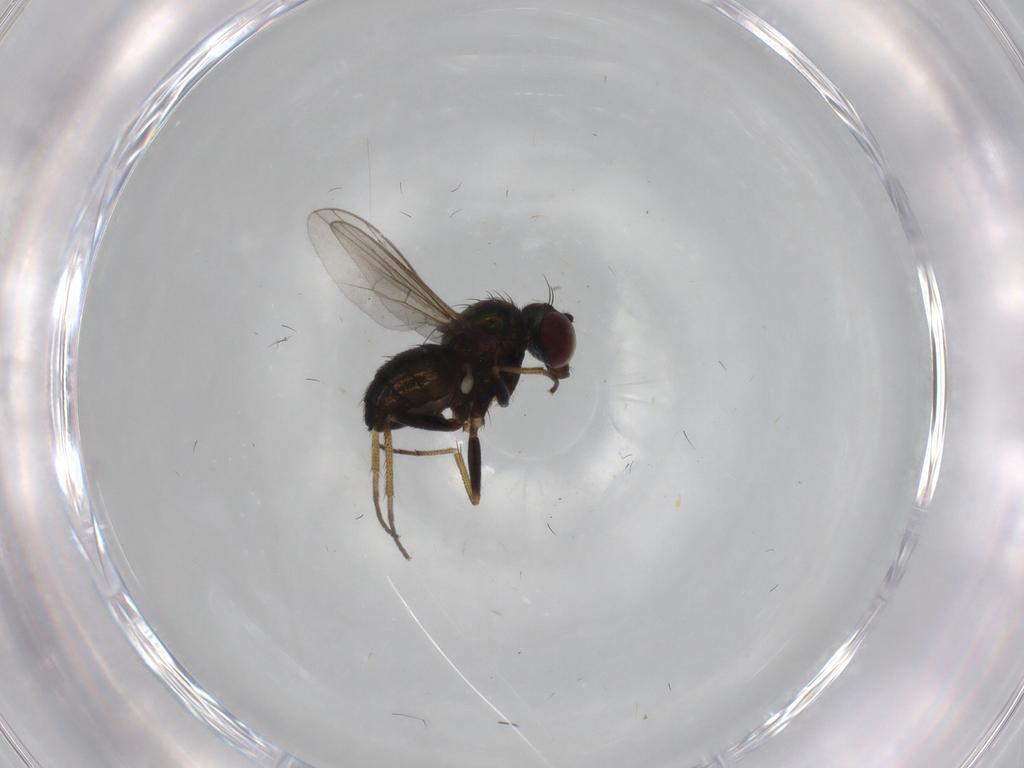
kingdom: Animalia
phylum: Arthropoda
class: Insecta
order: Diptera
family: Dolichopodidae
